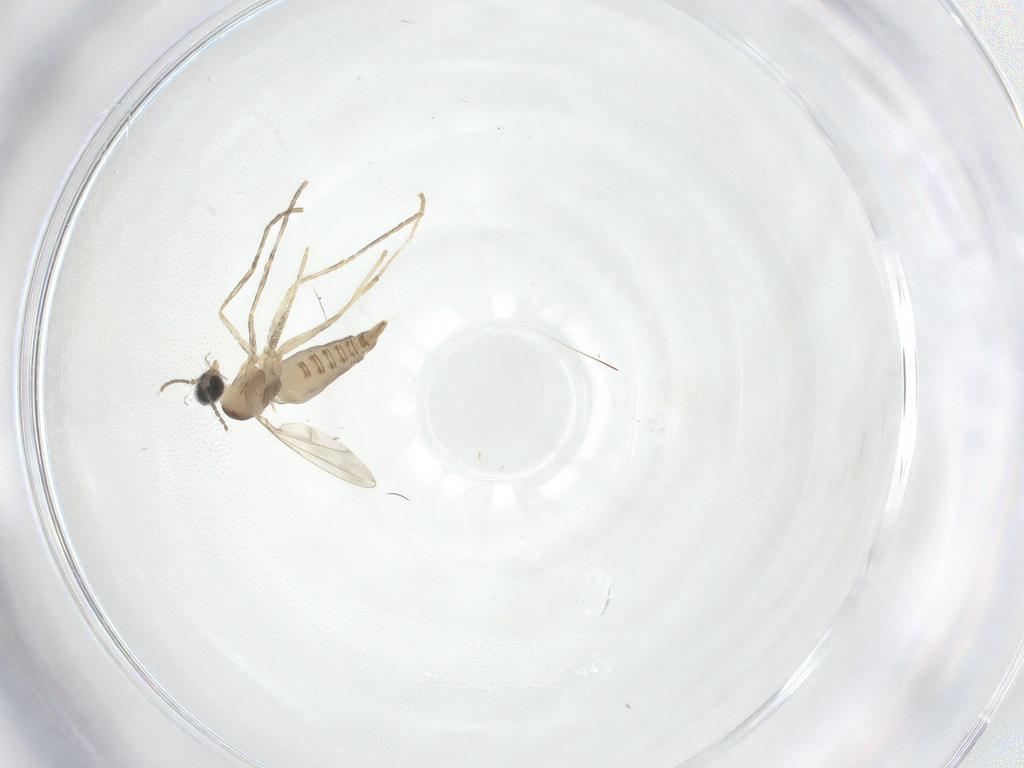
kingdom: Animalia
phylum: Arthropoda
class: Insecta
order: Diptera
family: Cecidomyiidae
